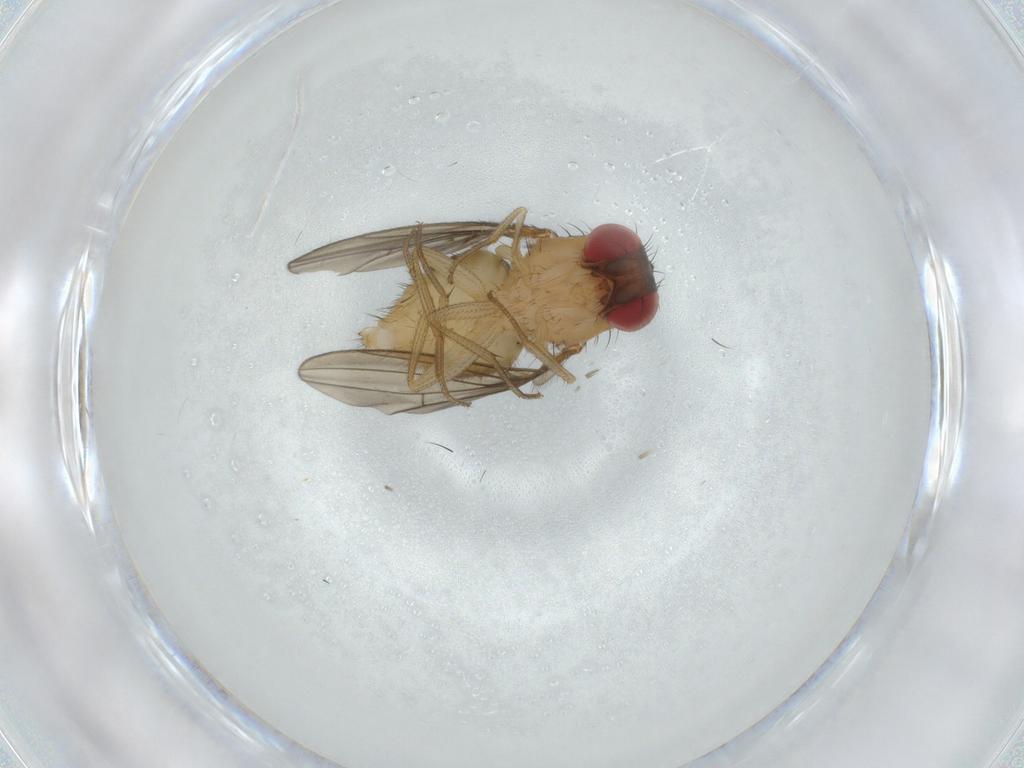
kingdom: Animalia
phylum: Arthropoda
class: Insecta
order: Diptera
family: Drosophilidae
